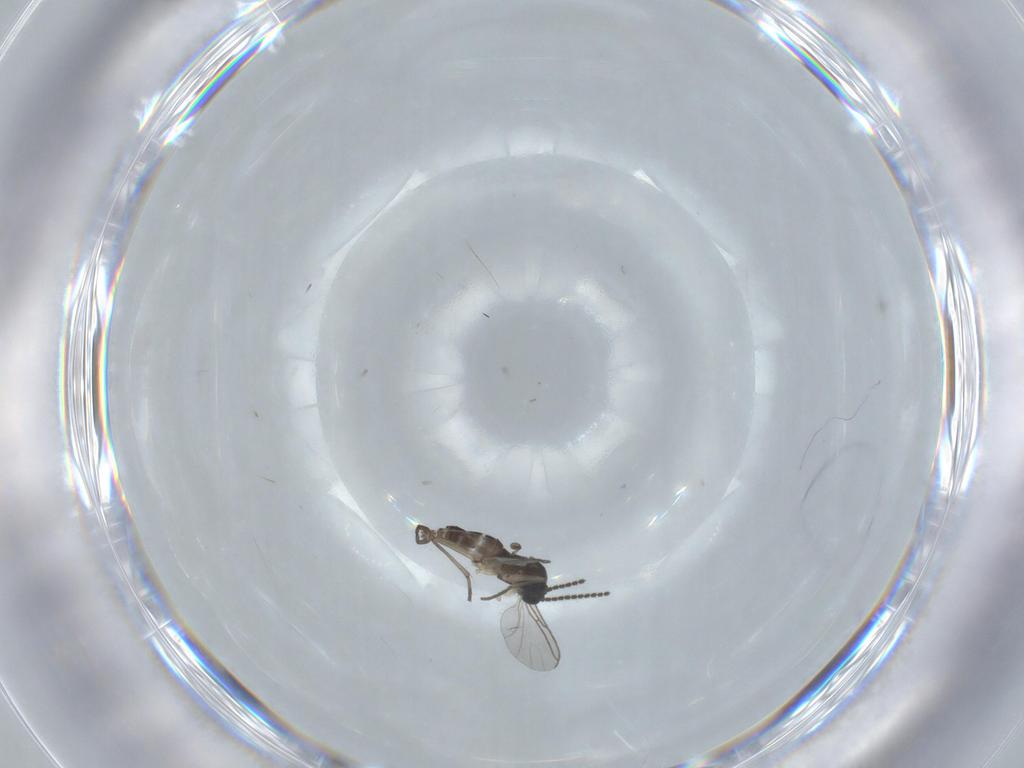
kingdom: Animalia
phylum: Arthropoda
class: Insecta
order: Diptera
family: Sciaridae
